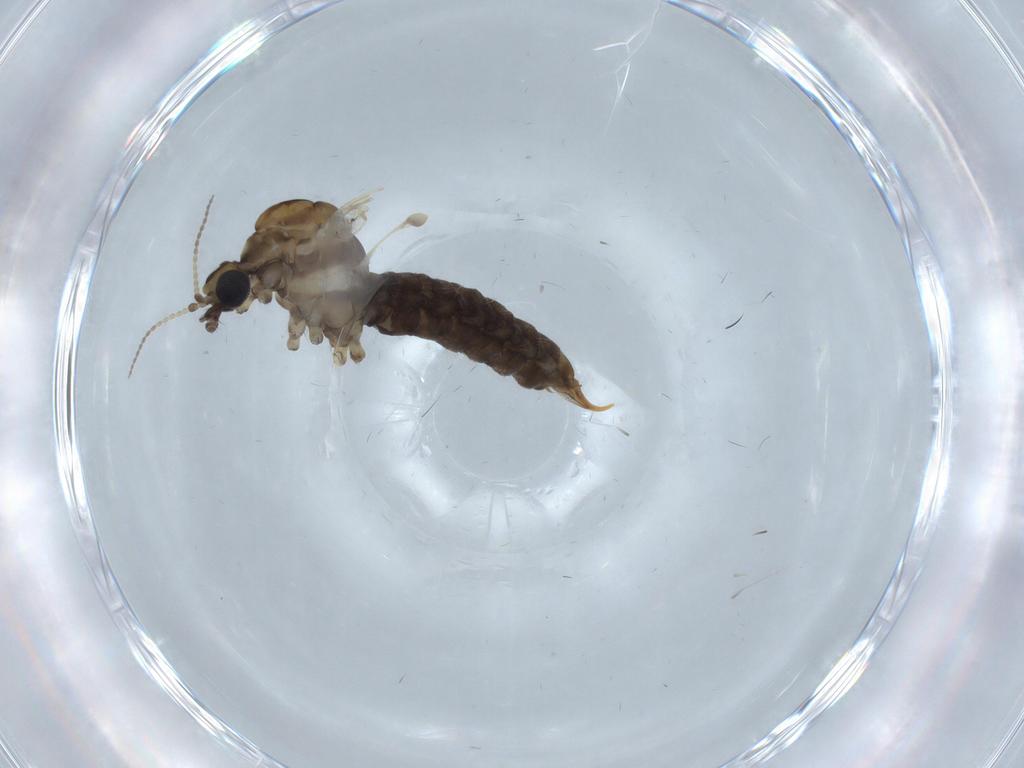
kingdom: Animalia
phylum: Arthropoda
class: Insecta
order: Diptera
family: Limoniidae
